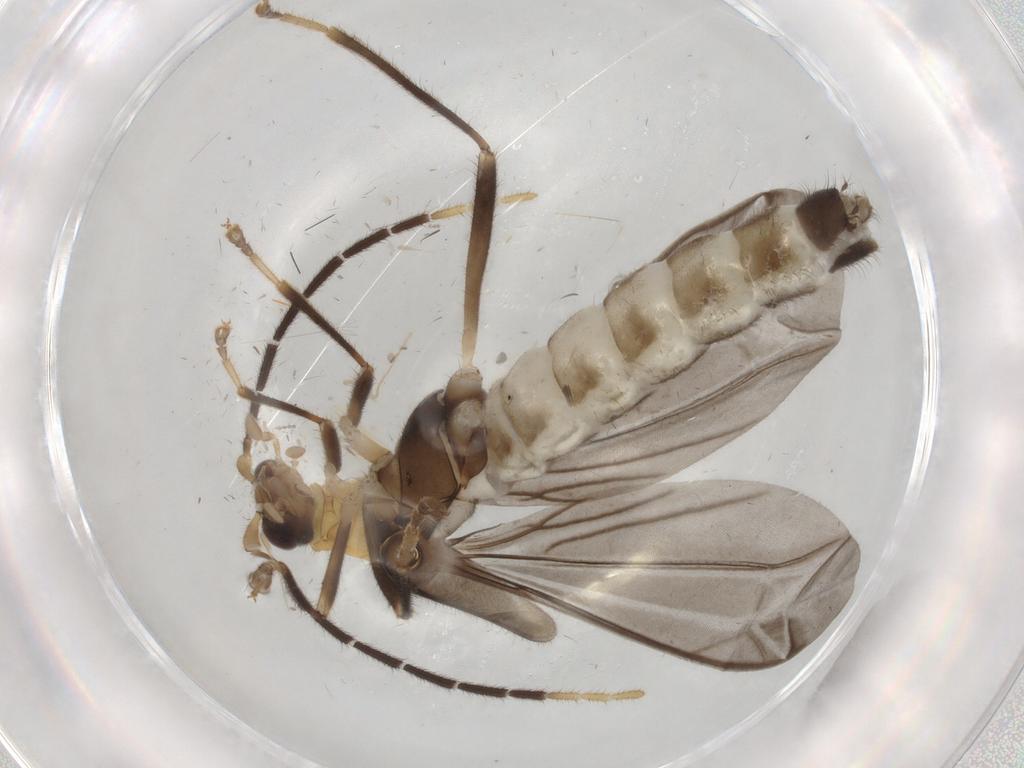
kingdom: Animalia
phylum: Arthropoda
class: Insecta
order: Coleoptera
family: Cantharidae
